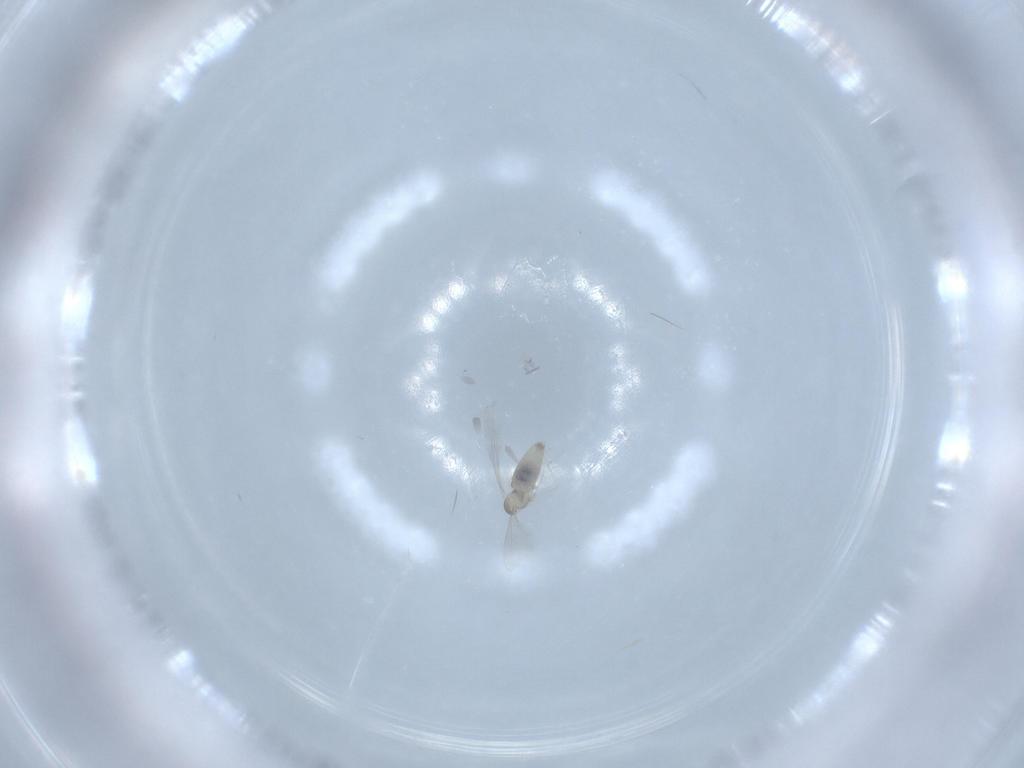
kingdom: Animalia
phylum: Arthropoda
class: Insecta
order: Diptera
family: Cecidomyiidae
